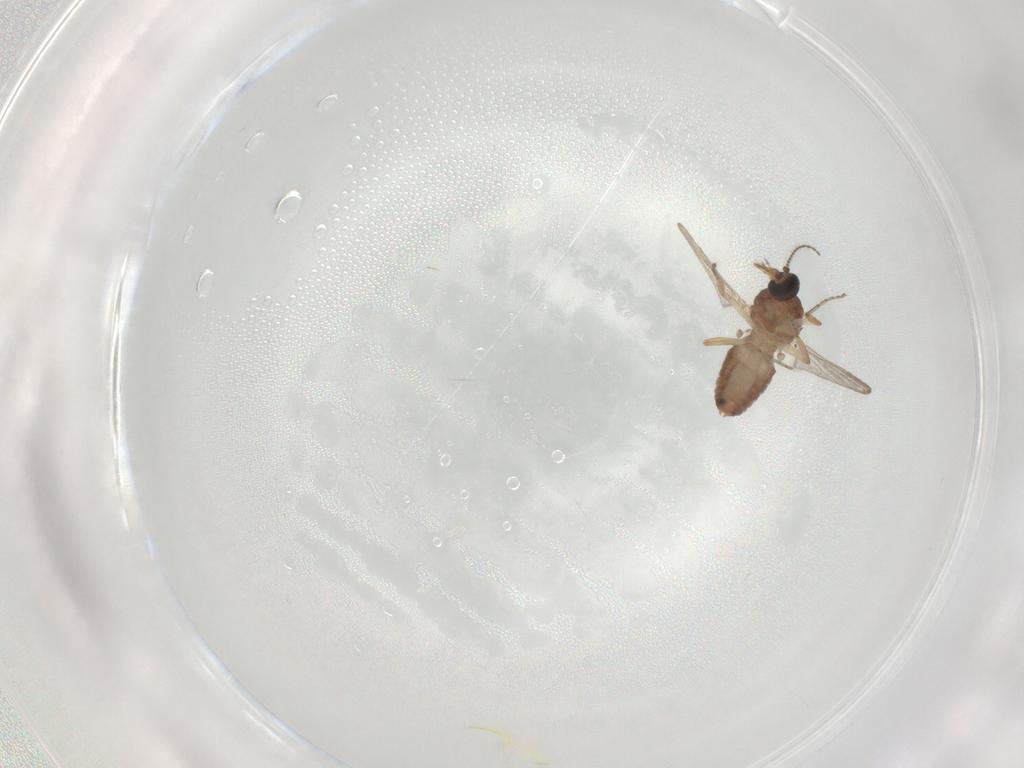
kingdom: Animalia
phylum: Arthropoda
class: Insecta
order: Diptera
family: Ceratopogonidae
